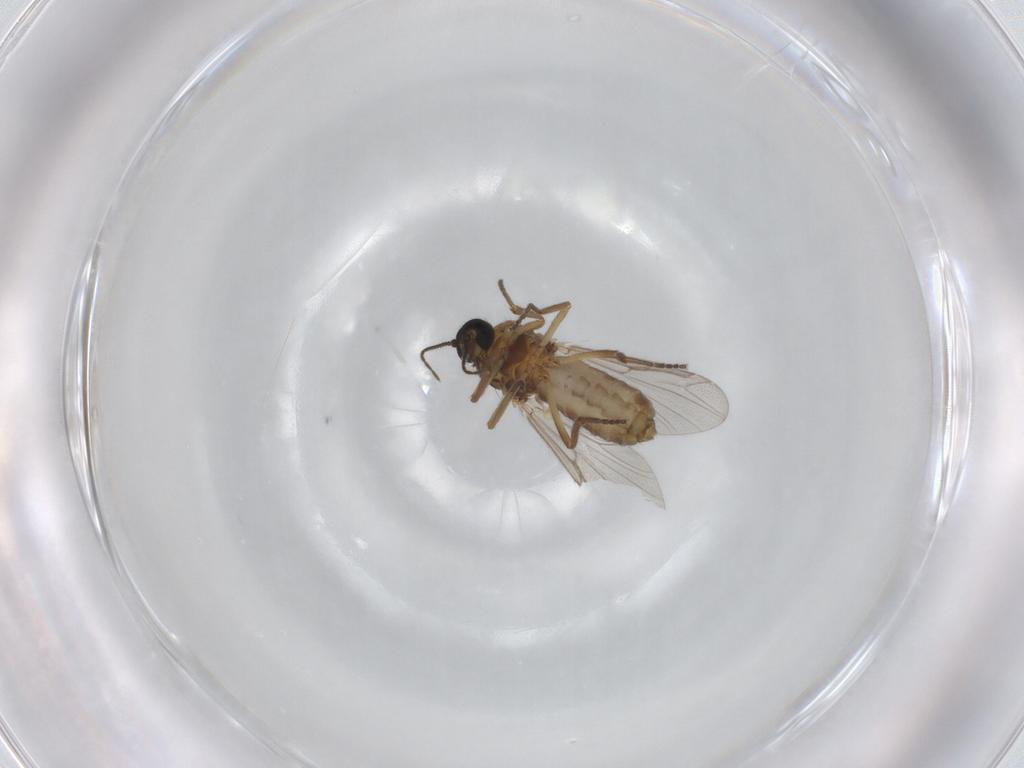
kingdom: Animalia
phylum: Arthropoda
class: Insecta
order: Diptera
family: Ceratopogonidae
